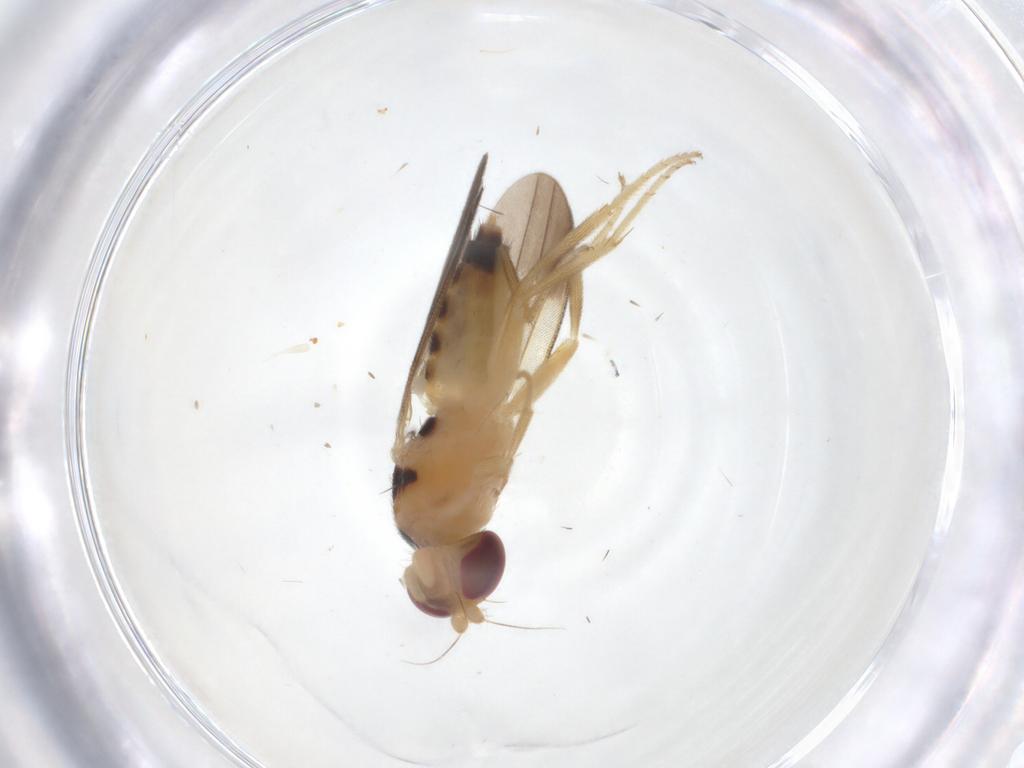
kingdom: Animalia
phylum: Arthropoda
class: Insecta
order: Diptera
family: Clusiidae
